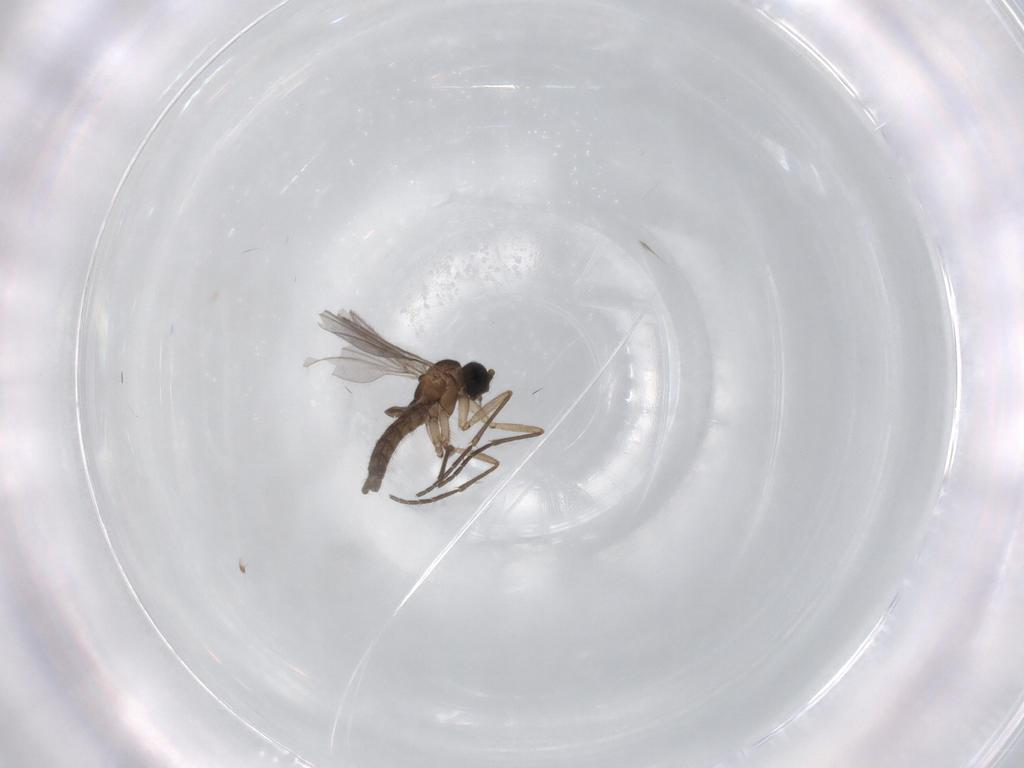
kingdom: Animalia
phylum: Arthropoda
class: Insecta
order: Diptera
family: Sciaridae
